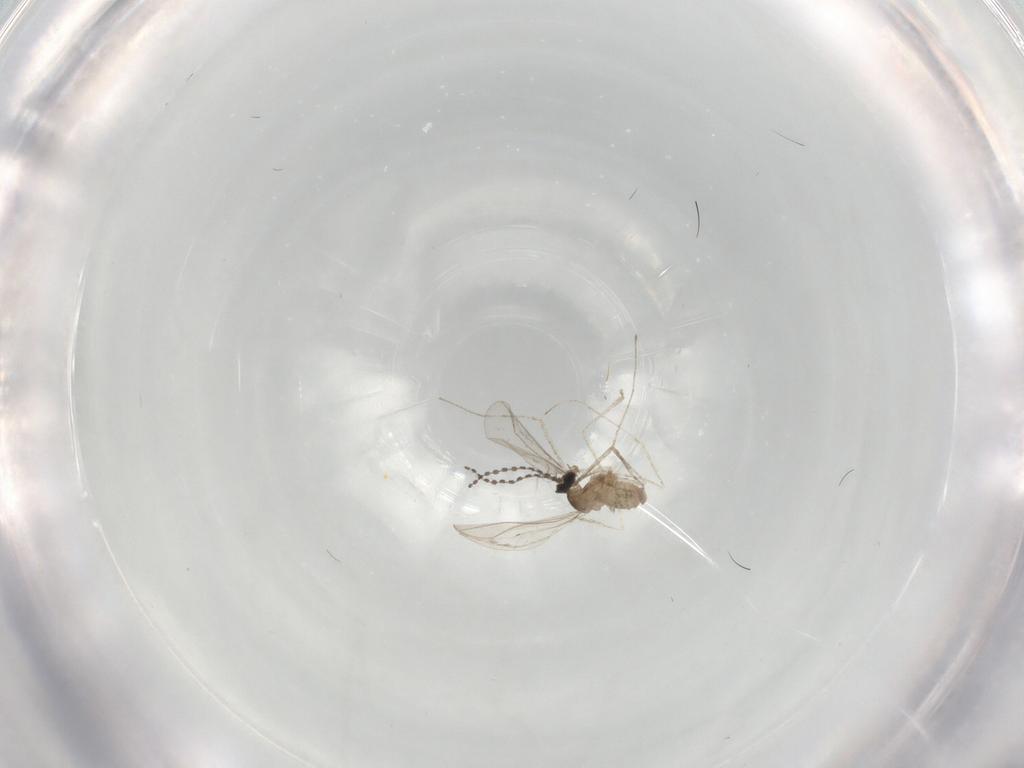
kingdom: Animalia
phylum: Arthropoda
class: Insecta
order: Diptera
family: Cecidomyiidae
